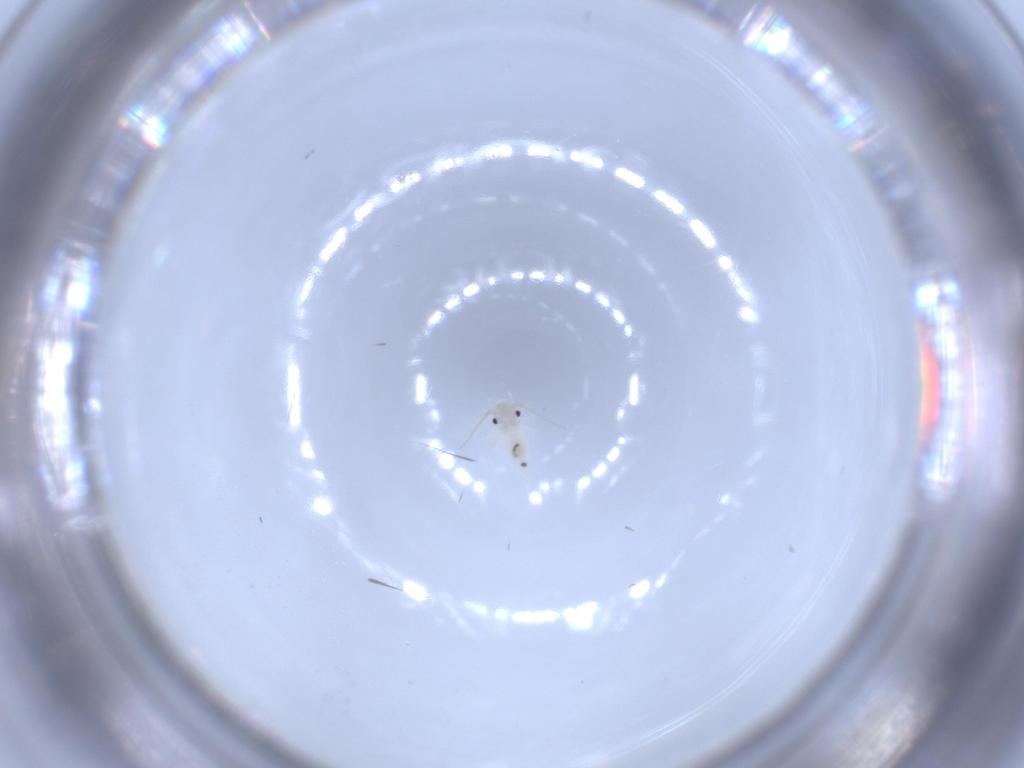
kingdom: Animalia
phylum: Arthropoda
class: Insecta
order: Psocodea
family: Caeciliusidae
